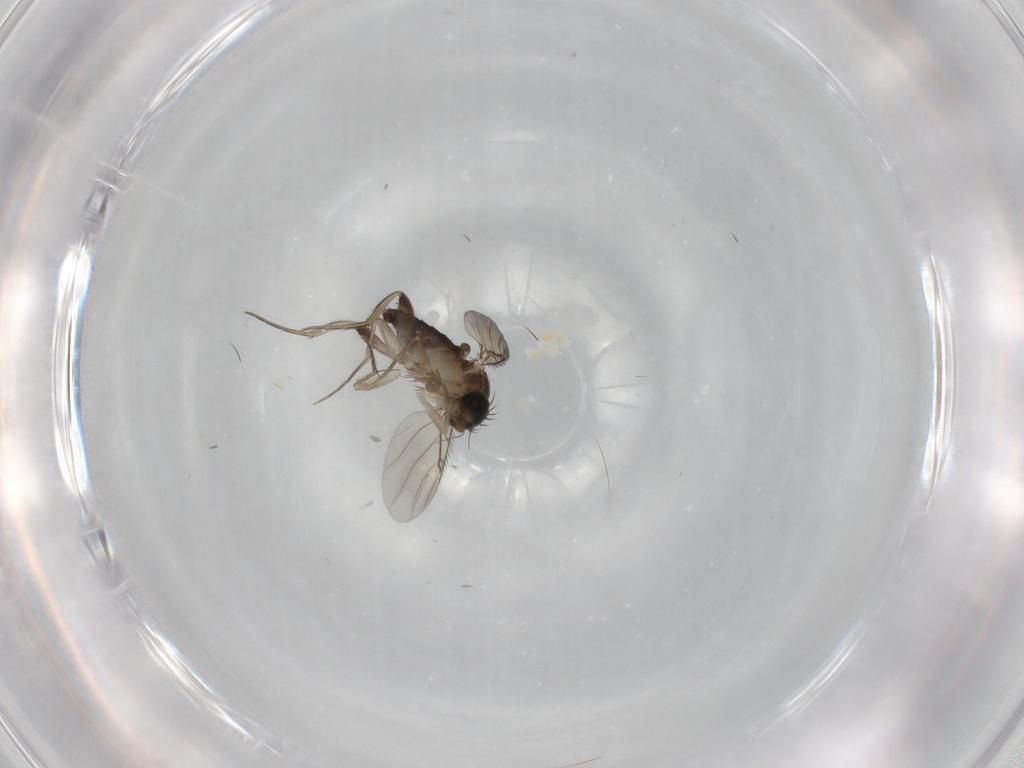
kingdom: Animalia
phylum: Arthropoda
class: Insecta
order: Diptera
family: Phoridae
